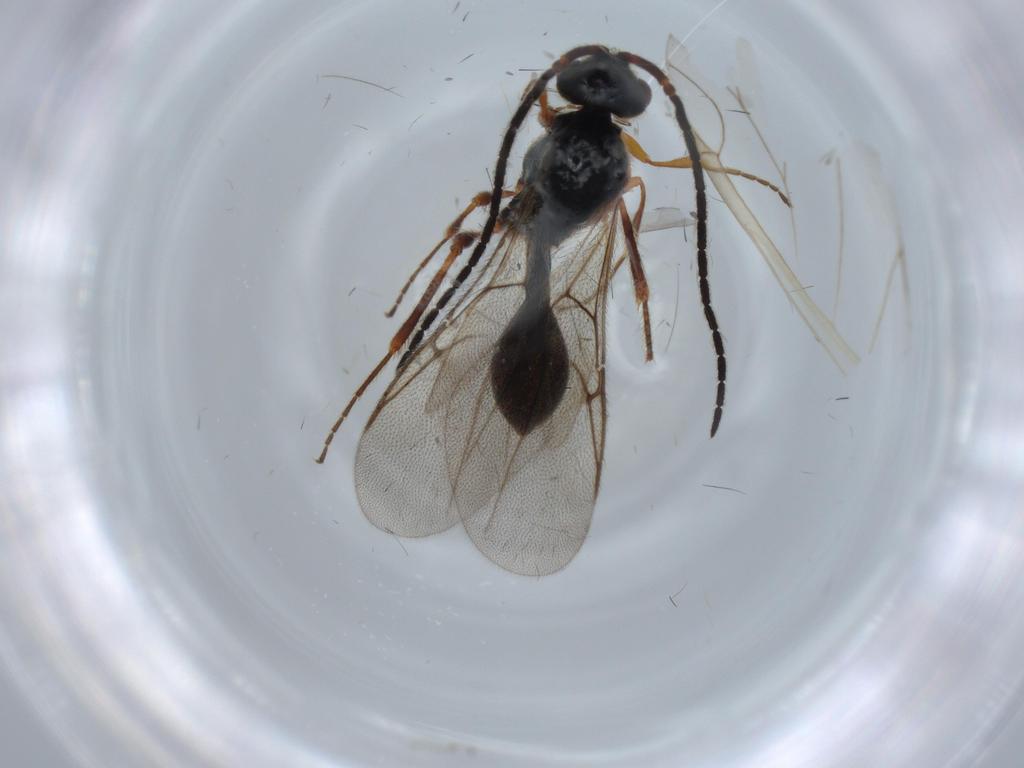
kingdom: Animalia
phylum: Arthropoda
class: Insecta
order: Hymenoptera
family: Diapriidae
